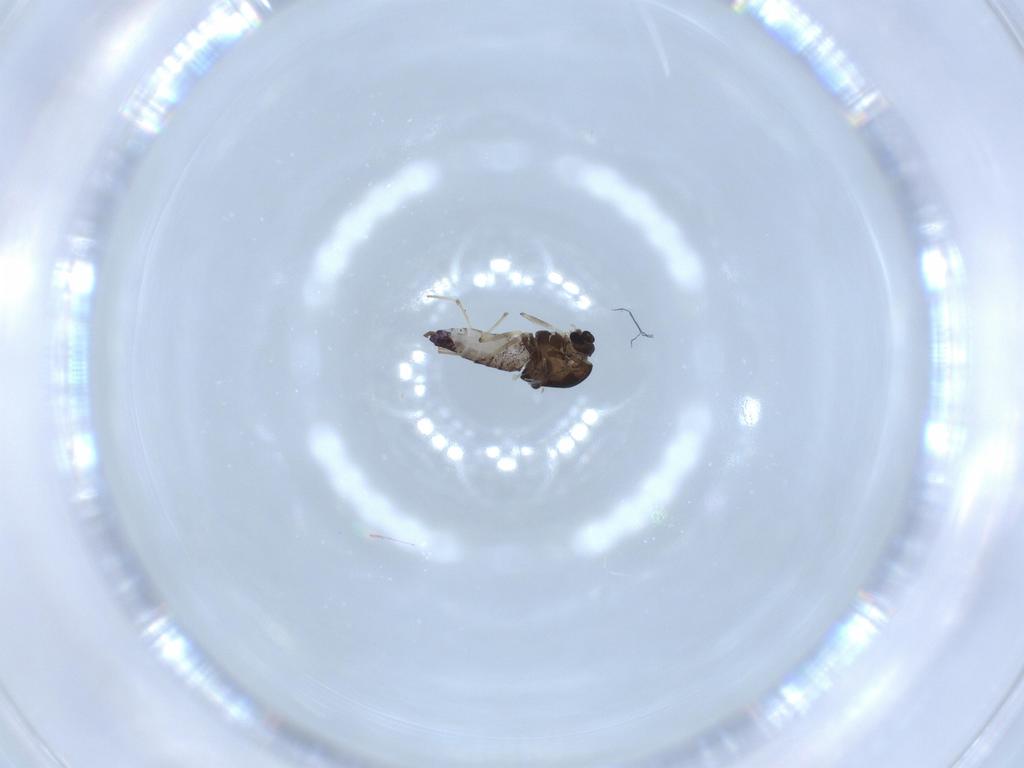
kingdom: Animalia
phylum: Arthropoda
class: Insecta
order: Diptera
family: Chironomidae
